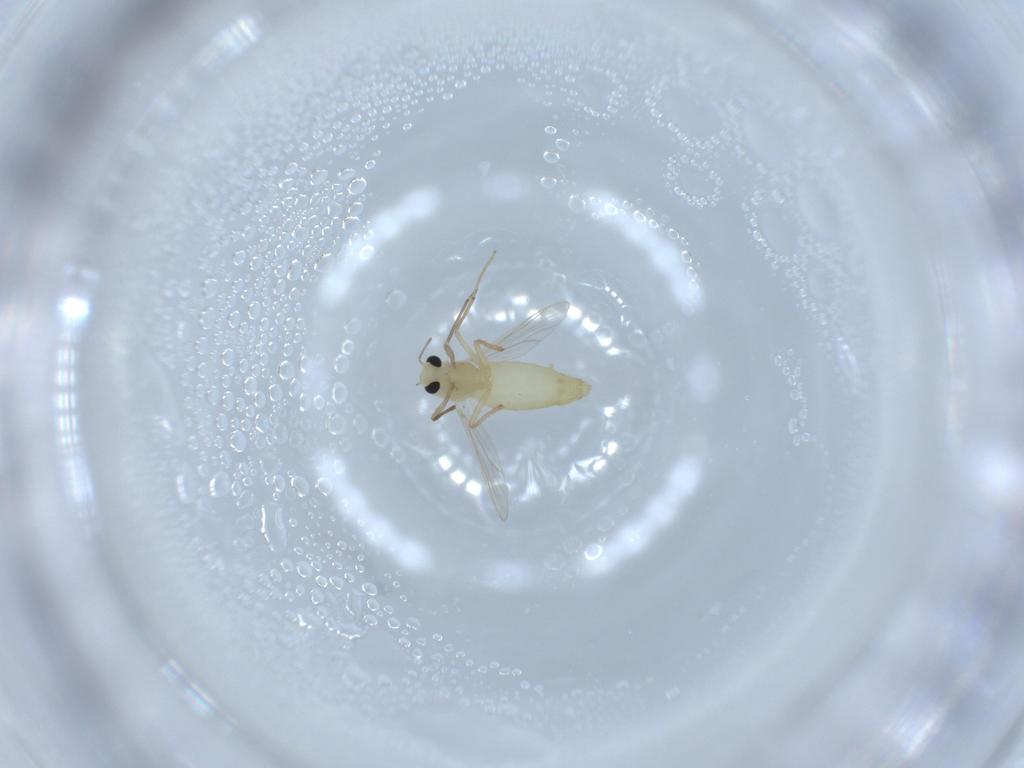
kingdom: Animalia
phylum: Arthropoda
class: Insecta
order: Diptera
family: Chironomidae
